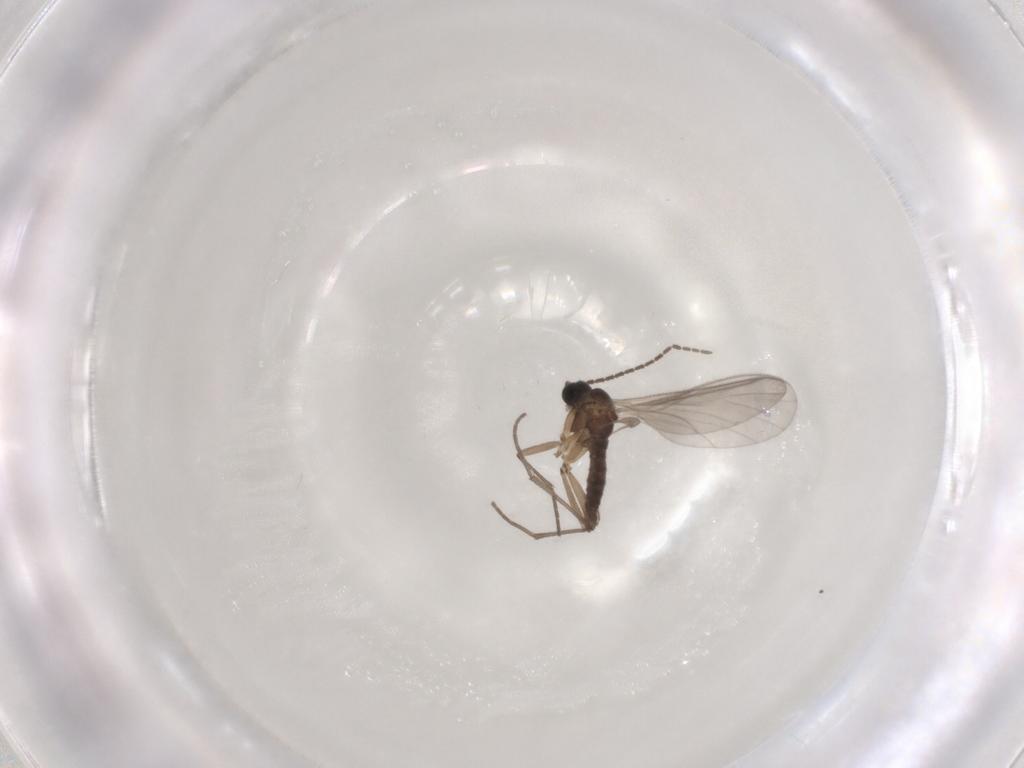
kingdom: Animalia
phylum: Arthropoda
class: Insecta
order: Diptera
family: Sciaridae
